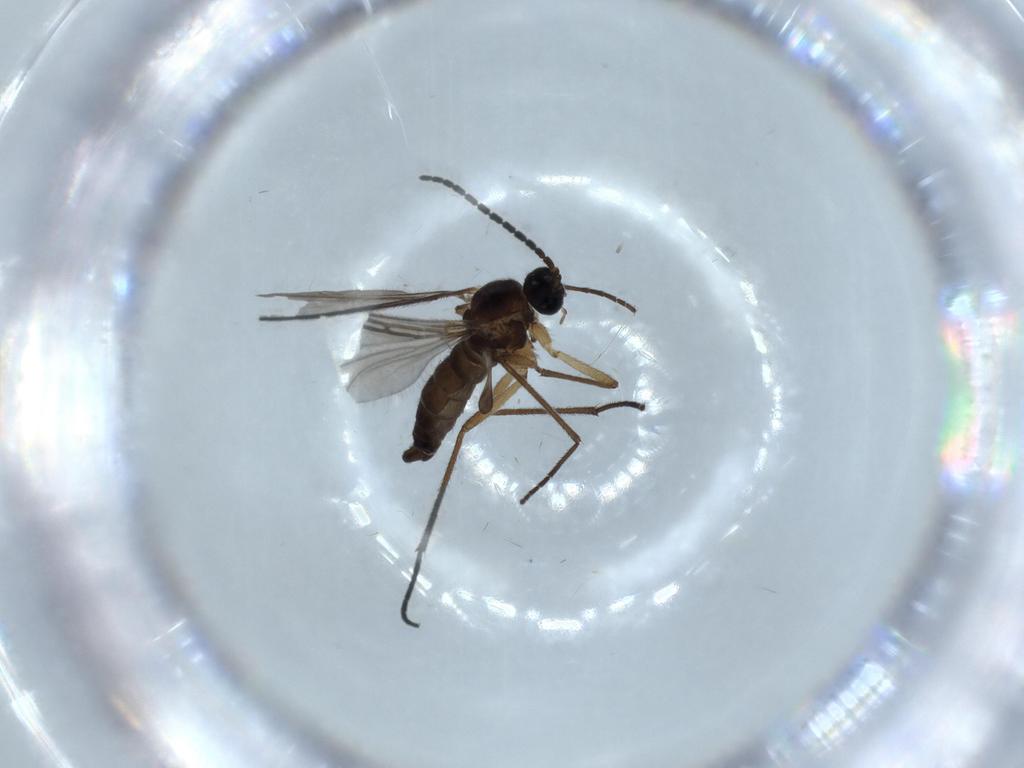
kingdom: Animalia
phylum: Arthropoda
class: Insecta
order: Diptera
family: Sciaridae
